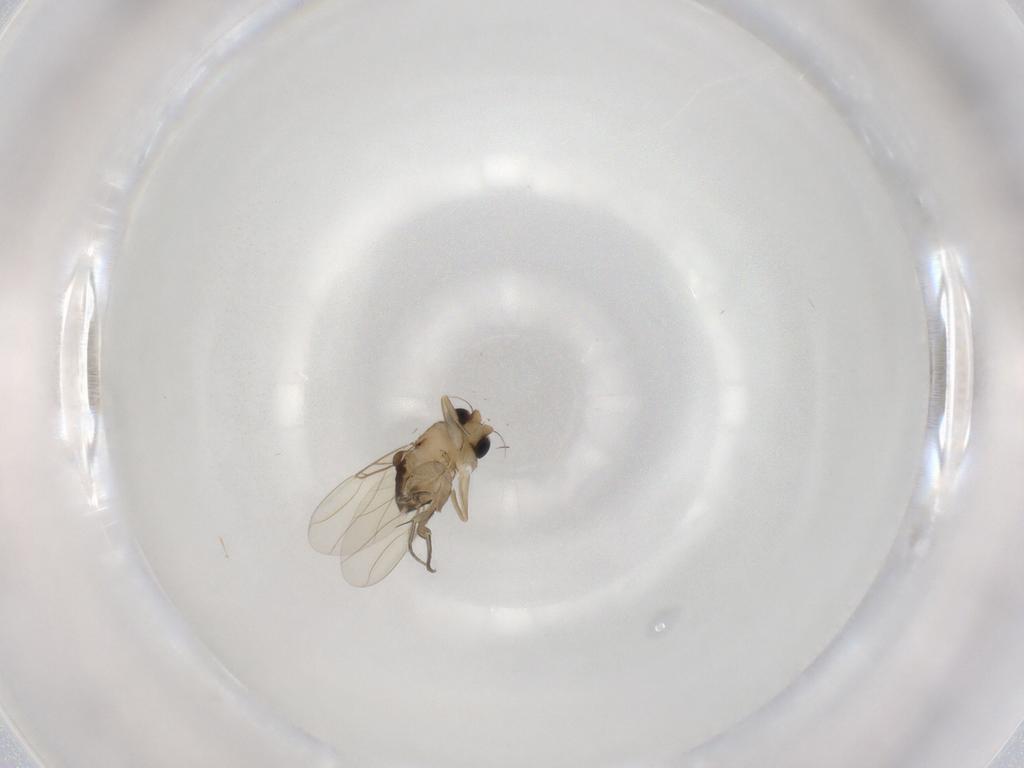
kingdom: Animalia
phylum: Arthropoda
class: Insecta
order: Diptera
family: Phoridae
